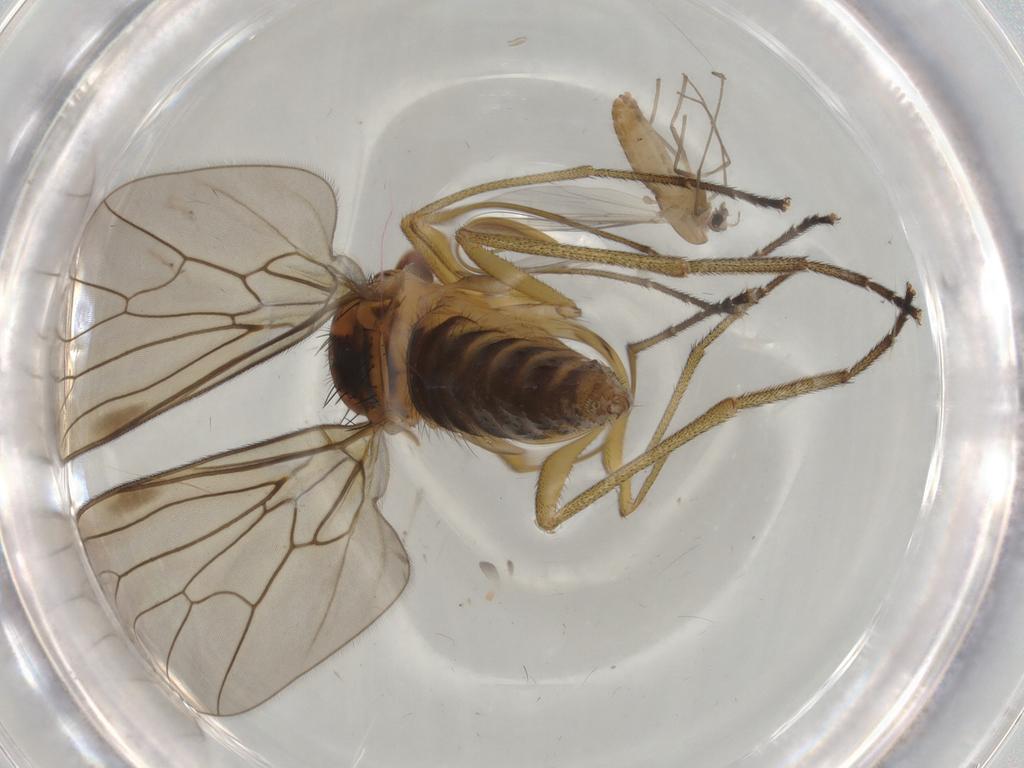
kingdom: Animalia
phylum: Arthropoda
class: Insecta
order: Diptera
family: Brachystomatidae
